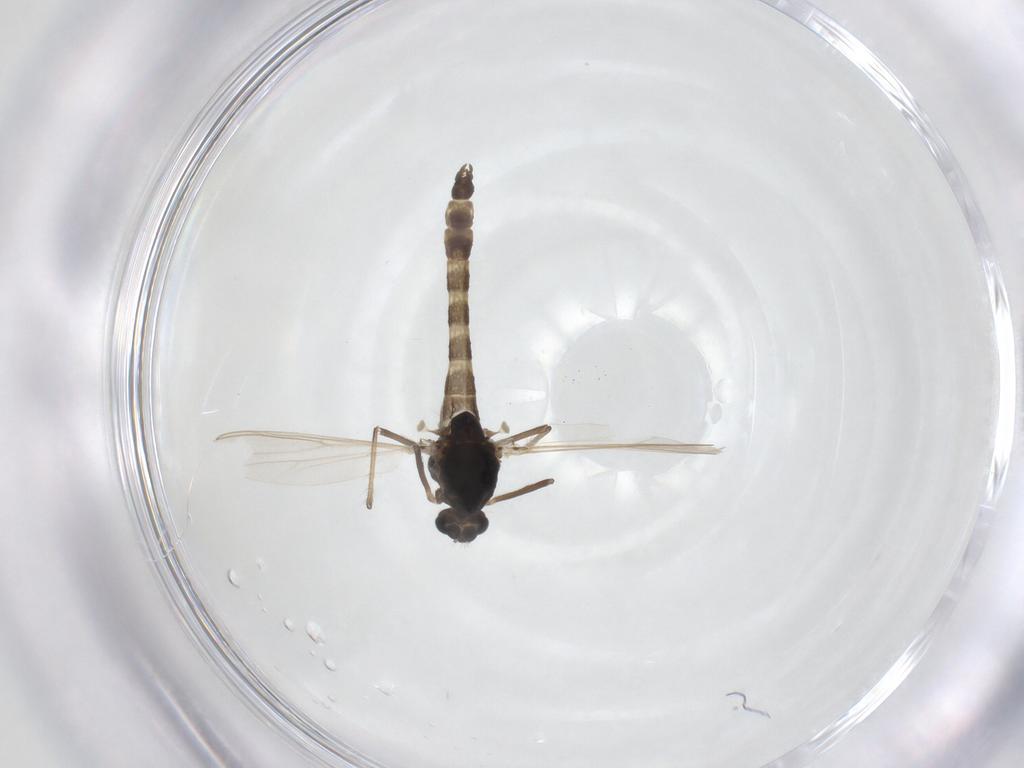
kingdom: Animalia
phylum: Arthropoda
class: Insecta
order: Diptera
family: Chironomidae
